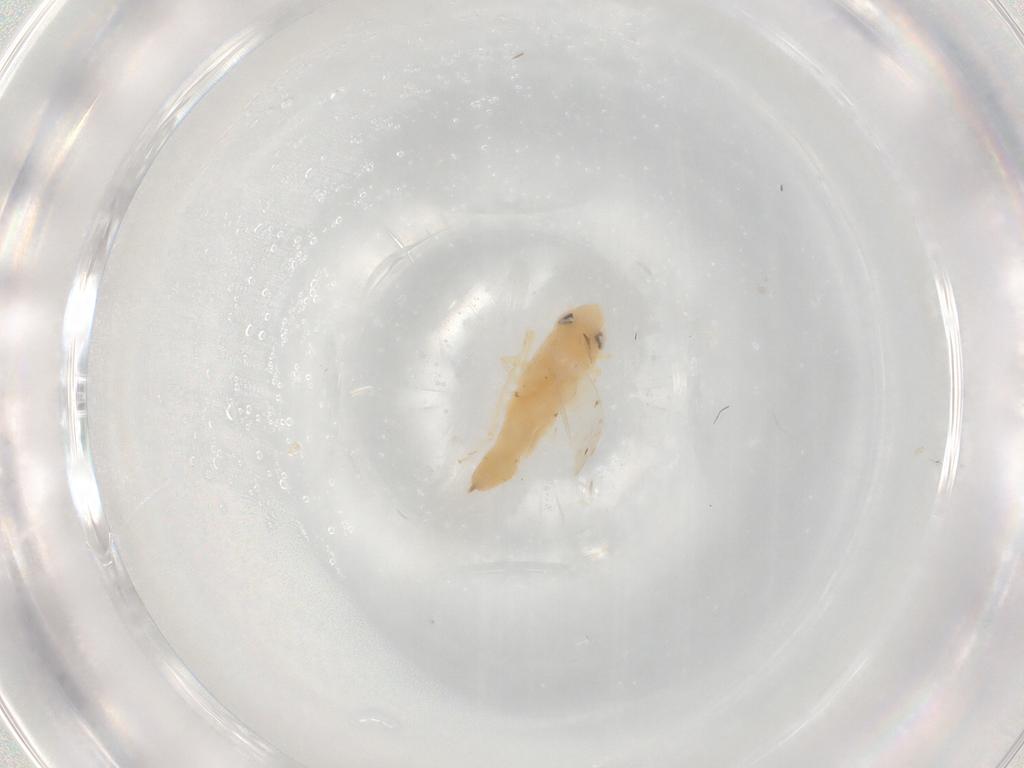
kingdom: Animalia
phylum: Arthropoda
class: Insecta
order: Hemiptera
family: Cicadellidae
